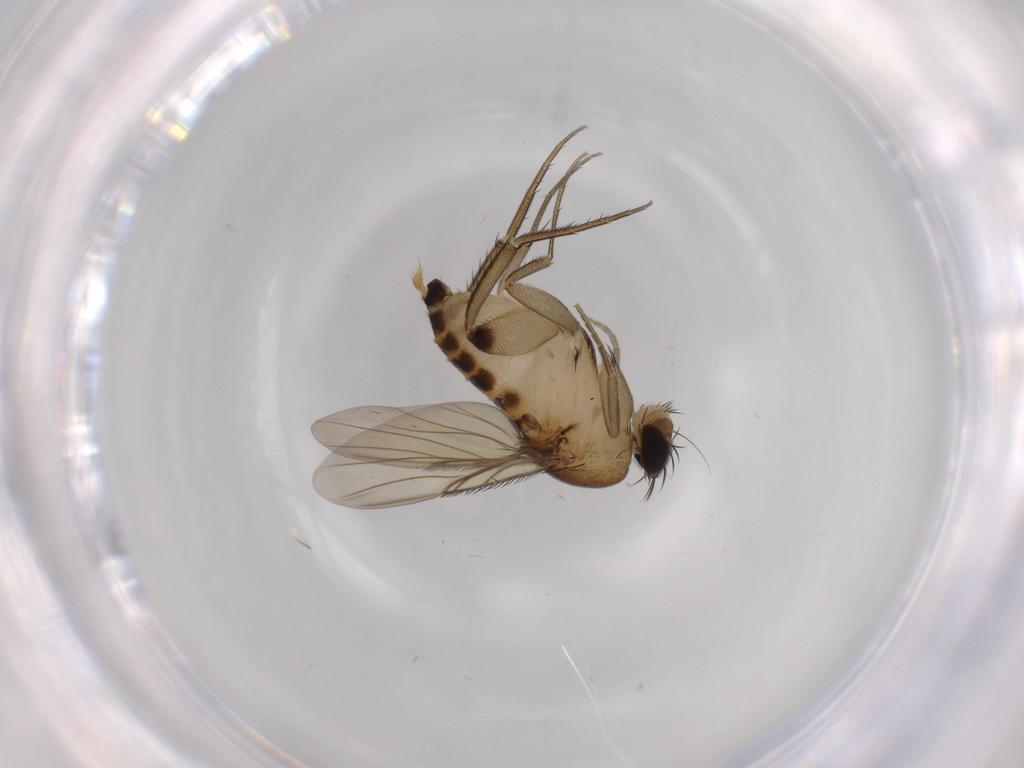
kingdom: Animalia
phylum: Arthropoda
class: Insecta
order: Diptera
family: Phoridae
